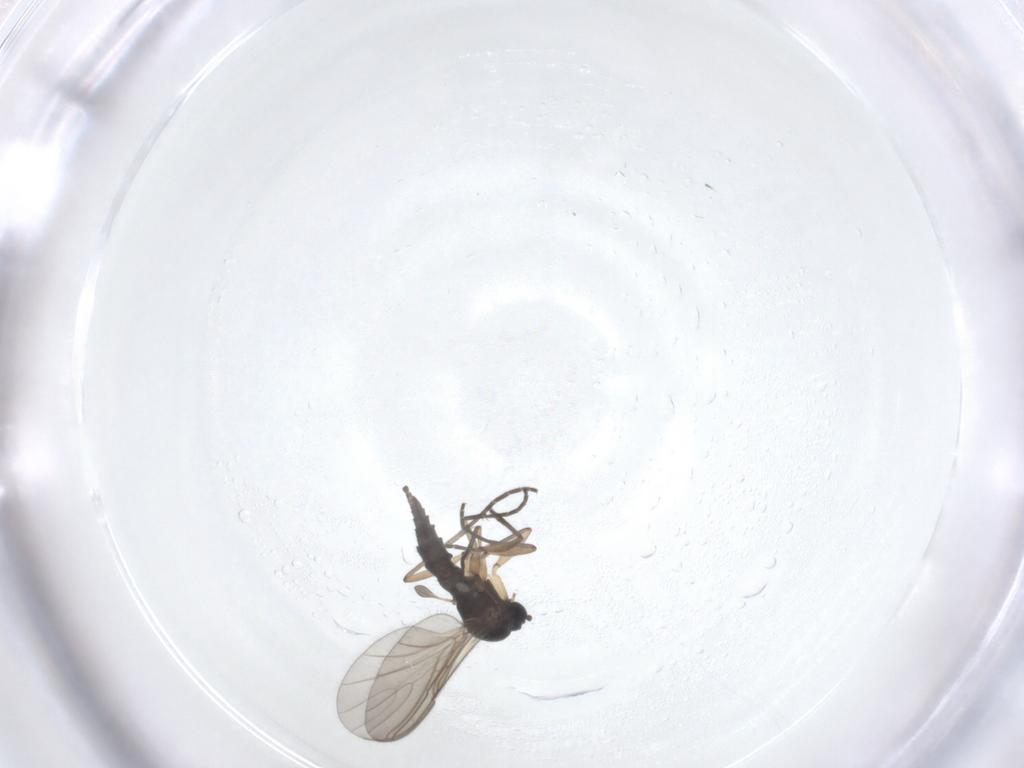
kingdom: Animalia
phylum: Arthropoda
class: Insecta
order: Diptera
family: Sciaridae
